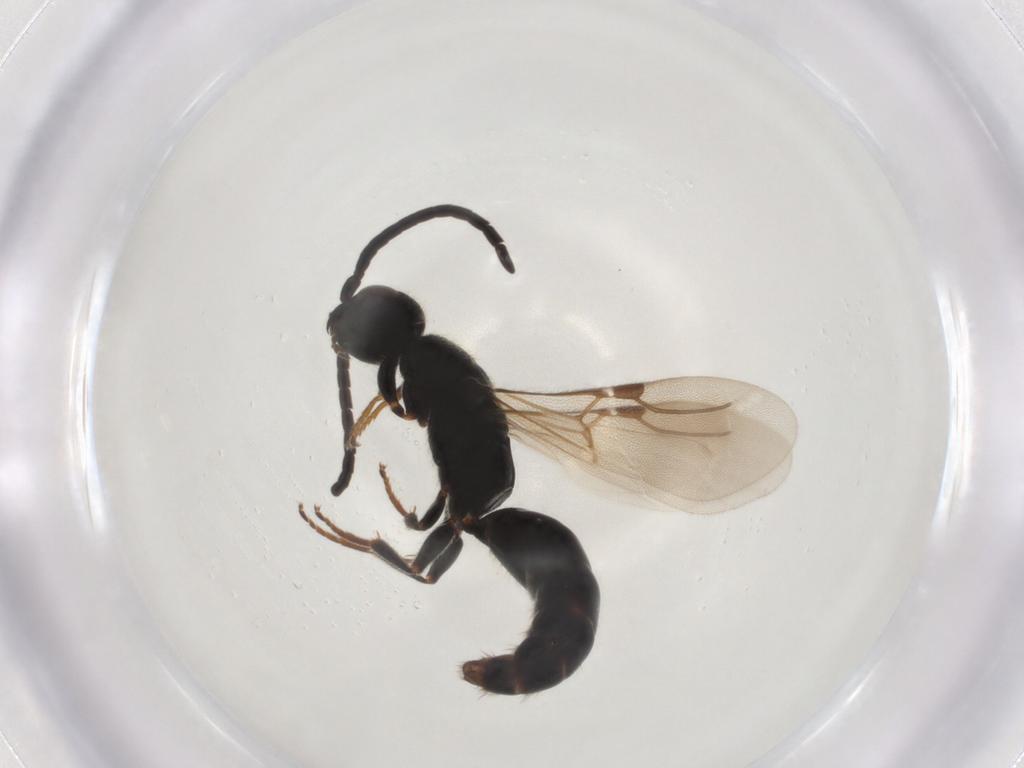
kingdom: Animalia
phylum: Arthropoda
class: Insecta
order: Hymenoptera
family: Bethylidae
